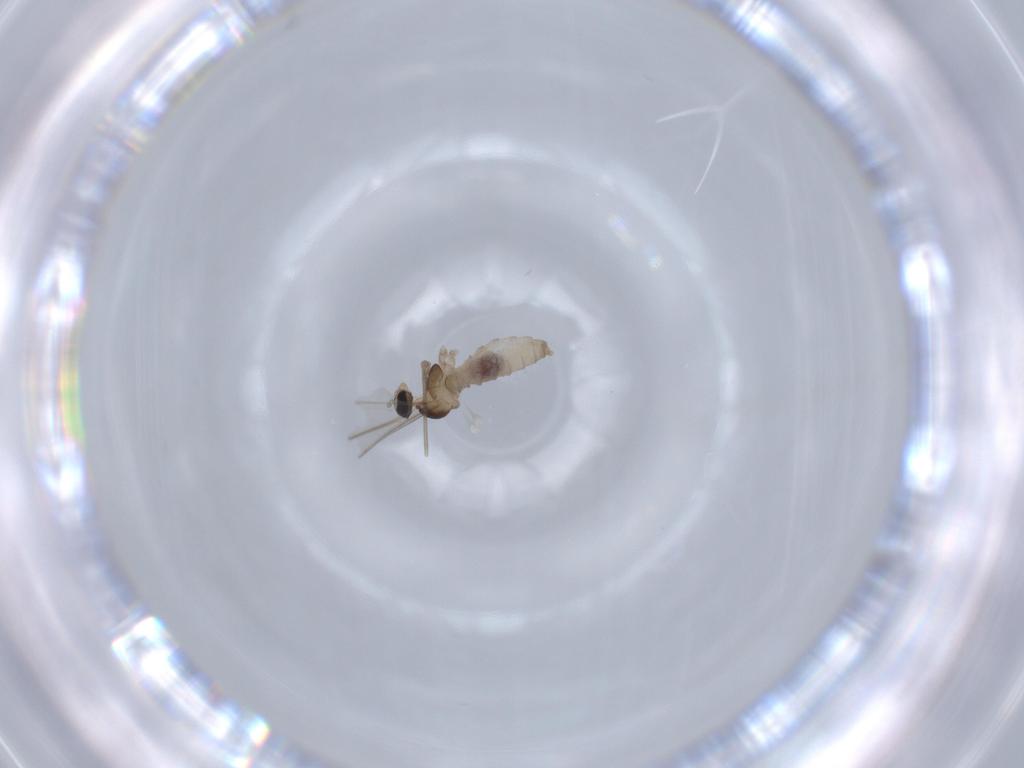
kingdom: Animalia
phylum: Arthropoda
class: Insecta
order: Diptera
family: Cecidomyiidae
